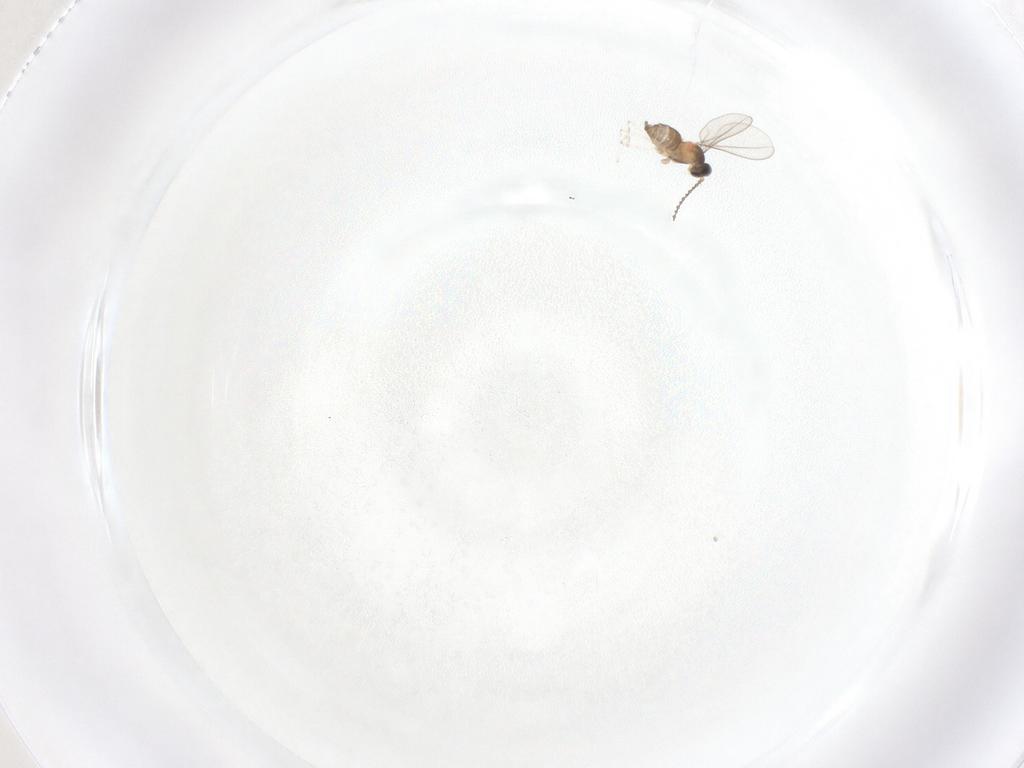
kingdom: Animalia
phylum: Arthropoda
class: Insecta
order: Diptera
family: Cecidomyiidae
